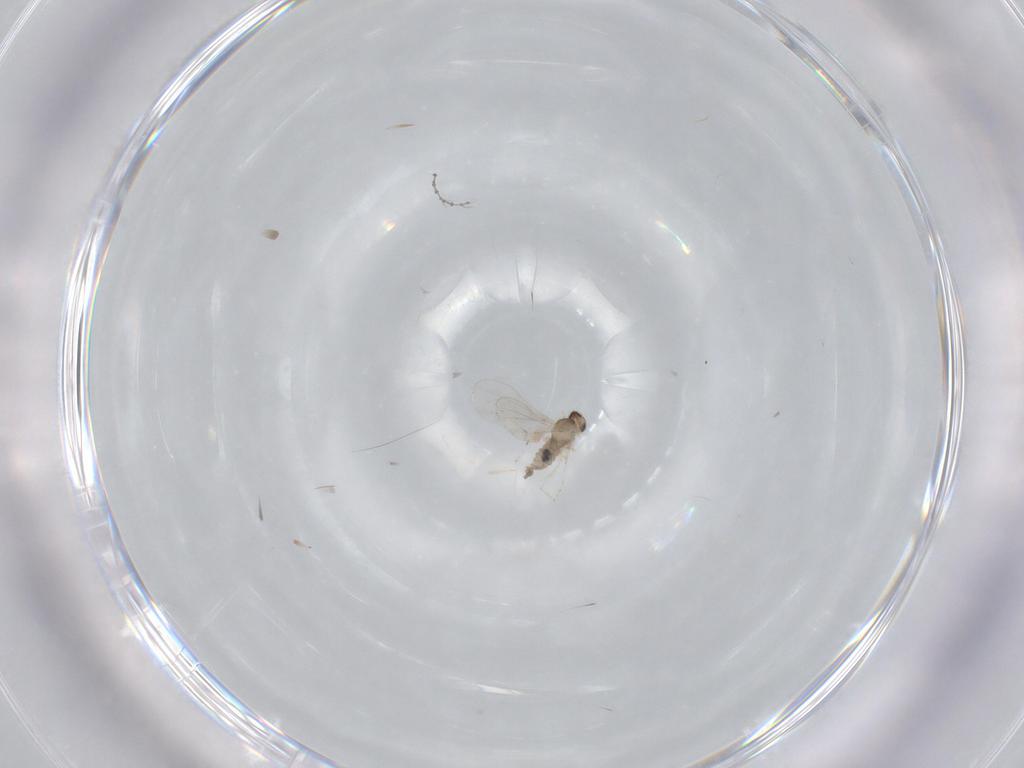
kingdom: Animalia
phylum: Arthropoda
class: Insecta
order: Diptera
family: Cecidomyiidae
